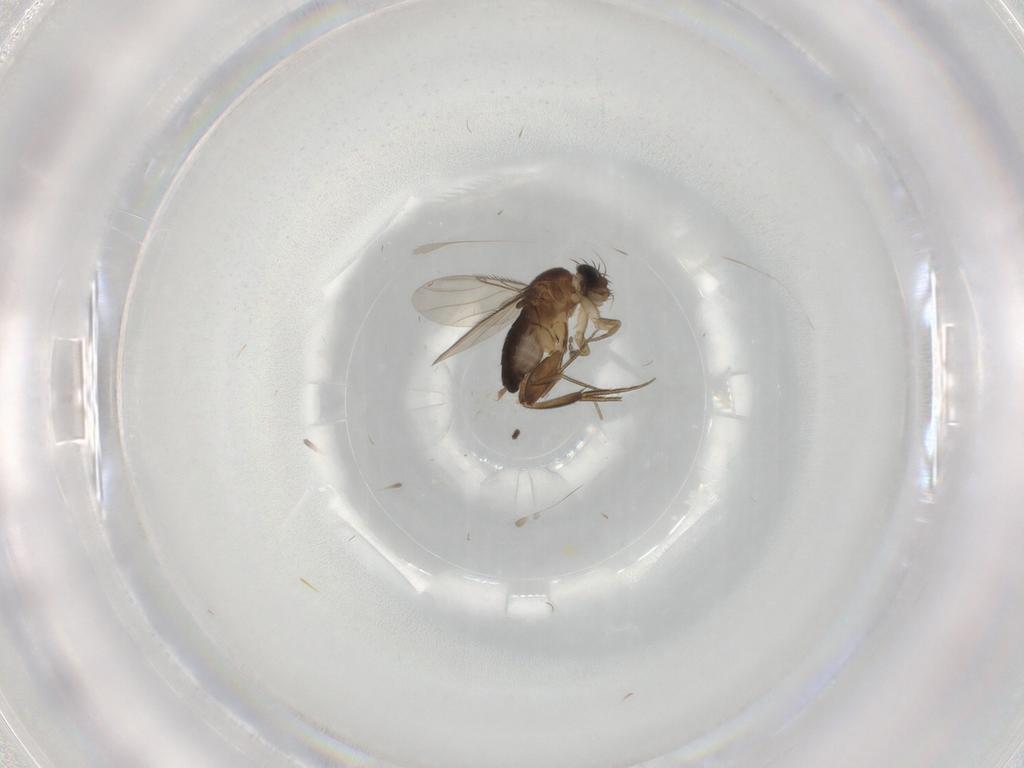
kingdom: Animalia
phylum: Arthropoda
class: Insecta
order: Diptera
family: Phoridae
